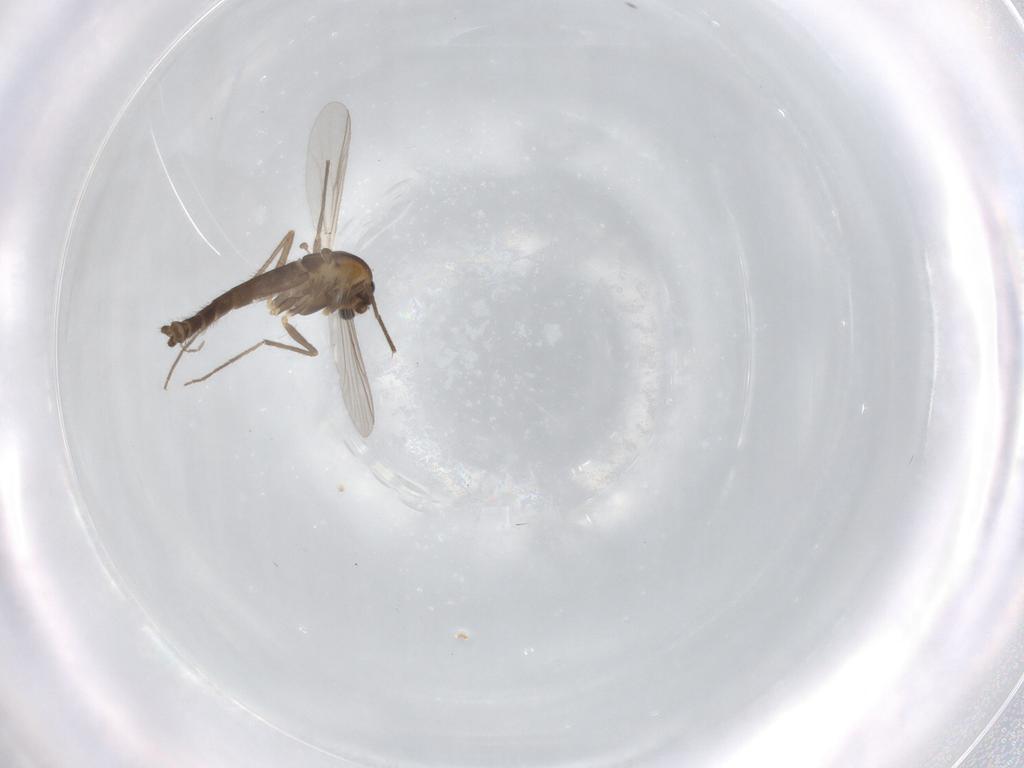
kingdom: Animalia
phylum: Arthropoda
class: Insecta
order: Diptera
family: Chironomidae
